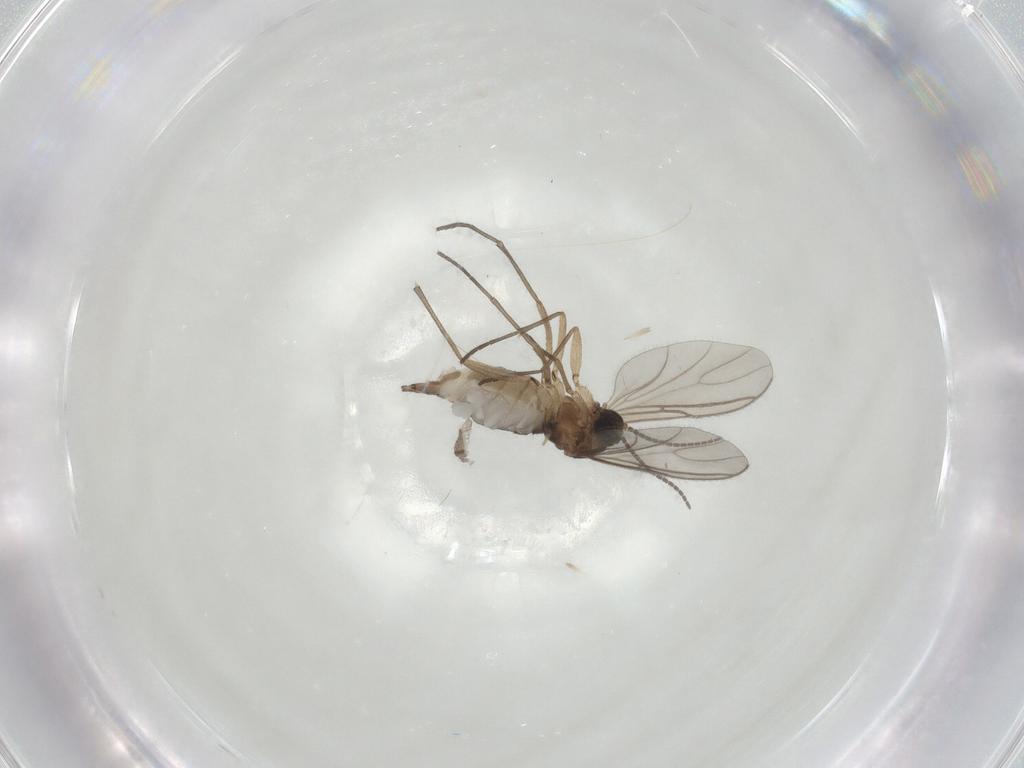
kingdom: Animalia
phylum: Arthropoda
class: Insecta
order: Diptera
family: Sciaridae
